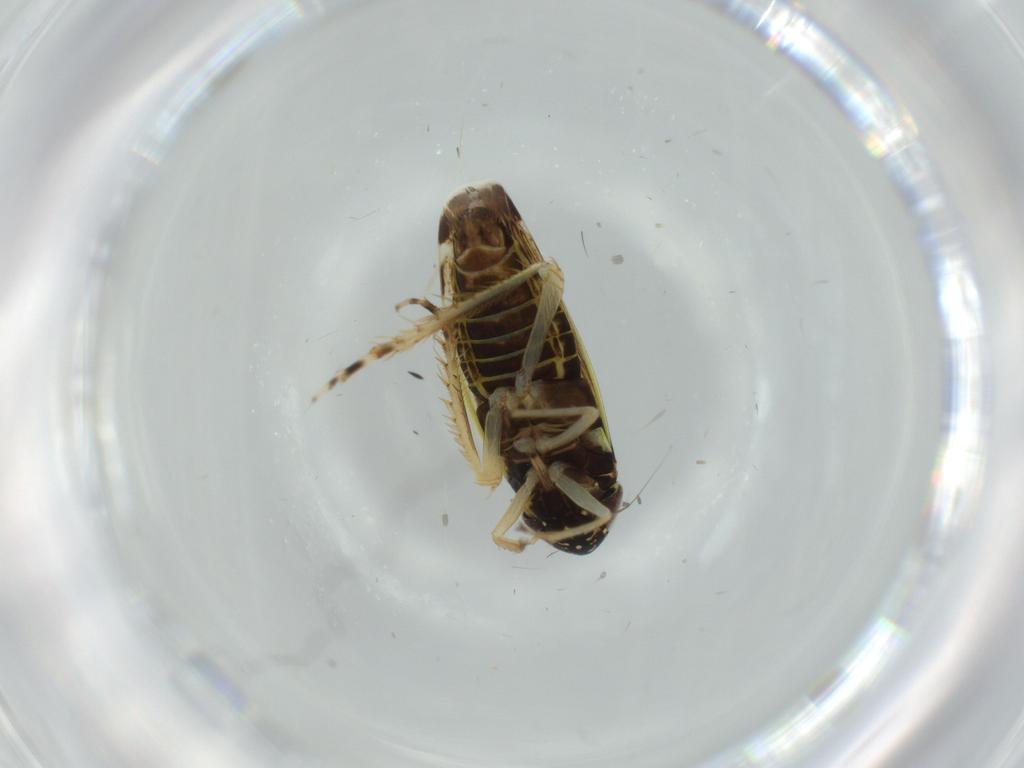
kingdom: Animalia
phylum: Arthropoda
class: Insecta
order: Hemiptera
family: Cicadellidae
